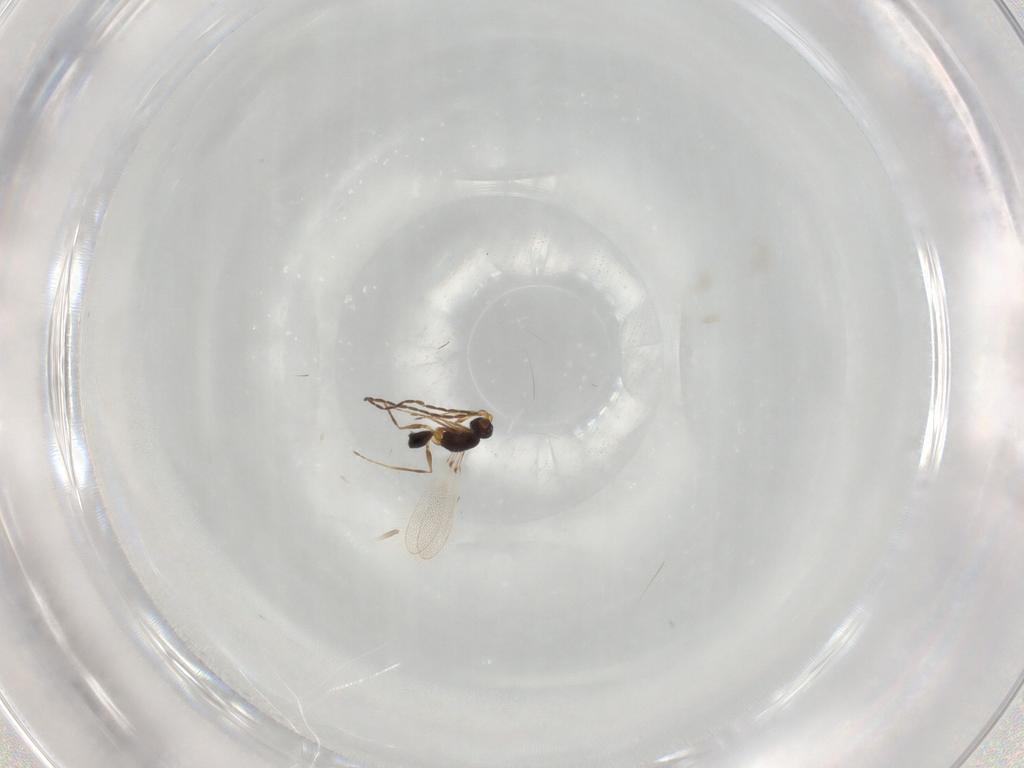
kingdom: Animalia
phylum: Arthropoda
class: Insecta
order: Hymenoptera
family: Mymaridae
